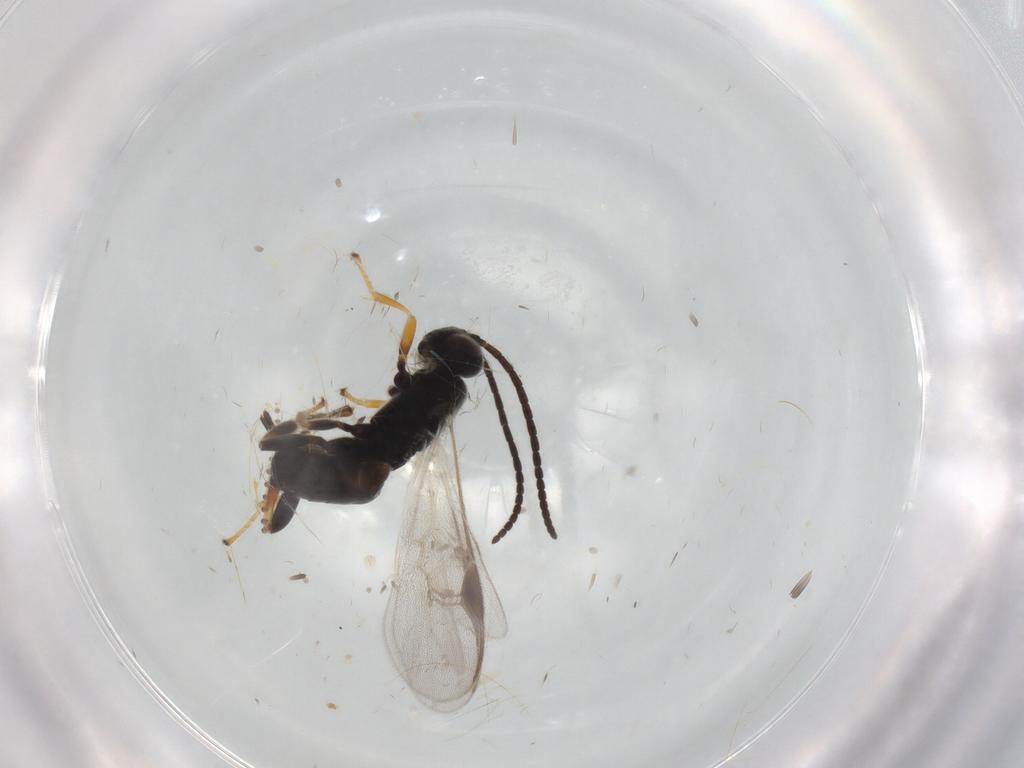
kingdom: Animalia
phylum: Arthropoda
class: Insecta
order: Hymenoptera
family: Braconidae
